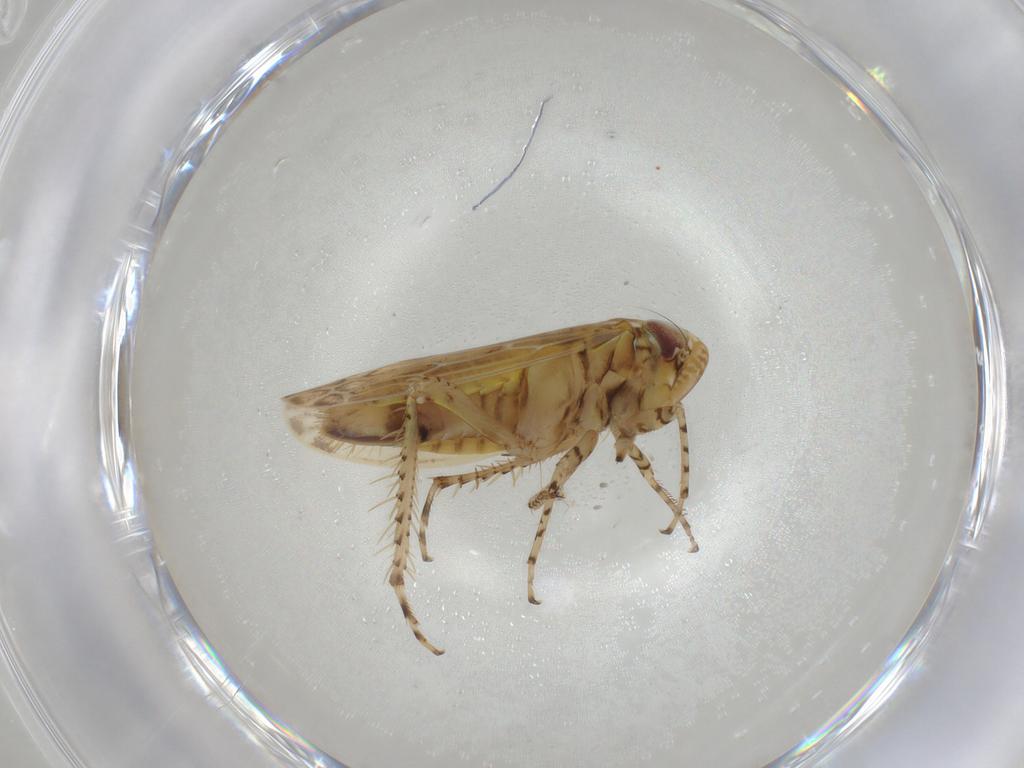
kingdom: Animalia
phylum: Arthropoda
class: Insecta
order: Hemiptera
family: Cicadellidae
